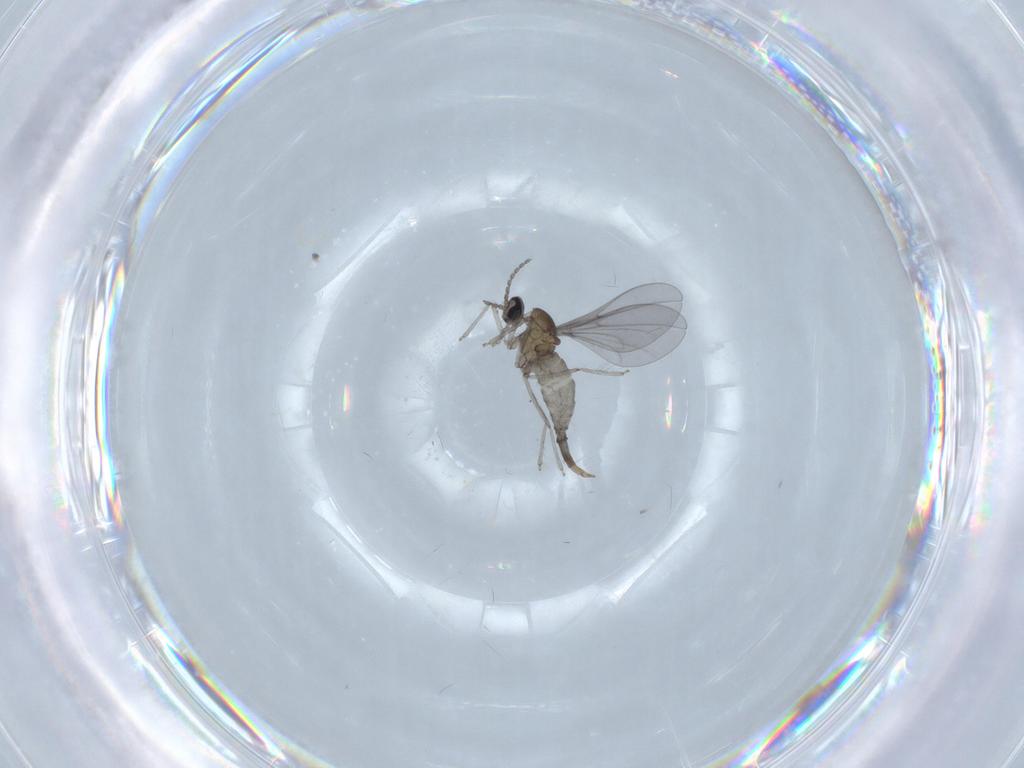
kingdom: Animalia
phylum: Arthropoda
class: Insecta
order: Diptera
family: Cecidomyiidae
